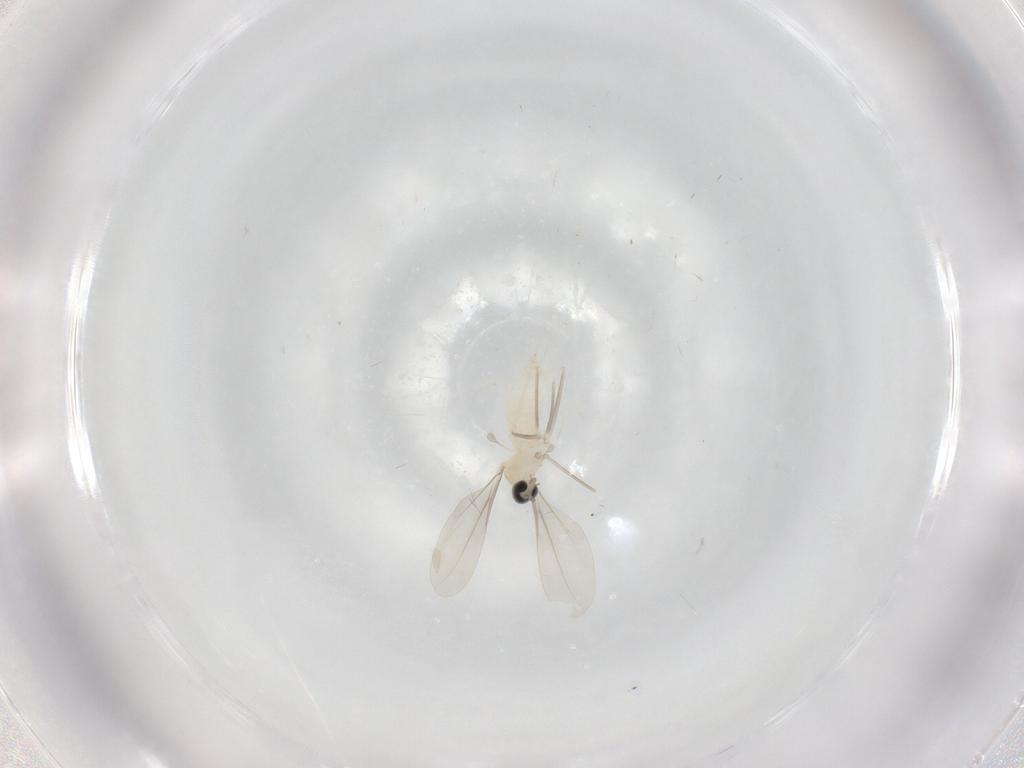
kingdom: Animalia
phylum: Arthropoda
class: Insecta
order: Diptera
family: Cecidomyiidae
